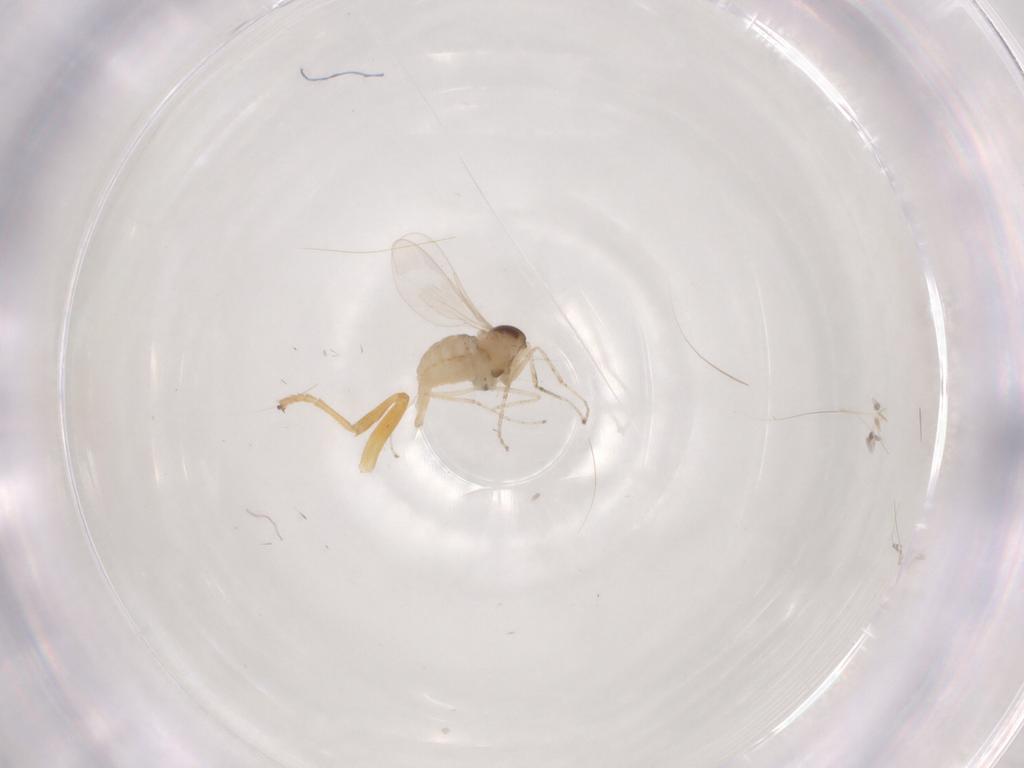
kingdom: Animalia
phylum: Arthropoda
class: Insecta
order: Diptera
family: Cecidomyiidae
